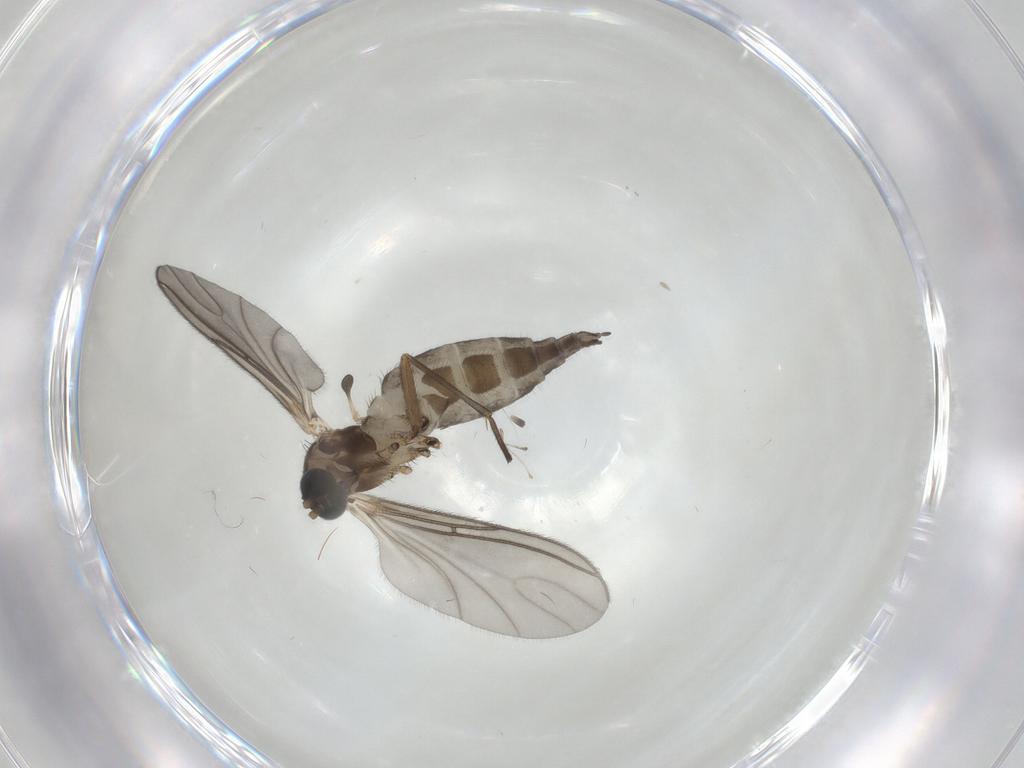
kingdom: Animalia
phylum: Arthropoda
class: Insecta
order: Diptera
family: Sciaridae
